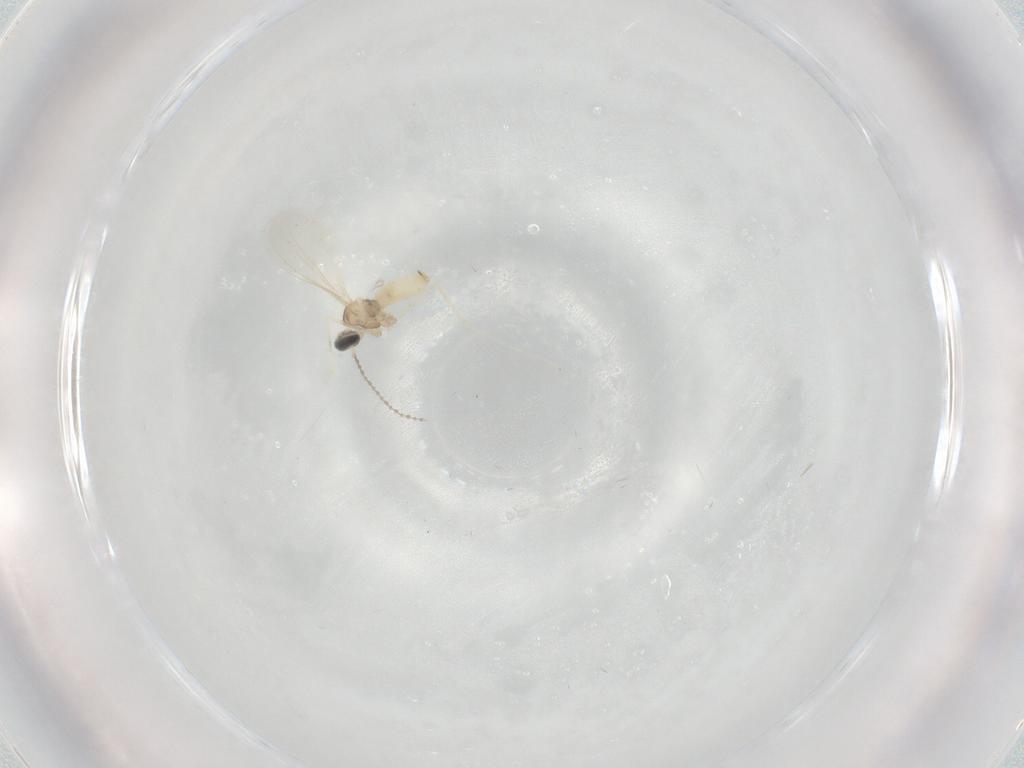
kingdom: Animalia
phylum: Arthropoda
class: Insecta
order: Diptera
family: Cecidomyiidae
